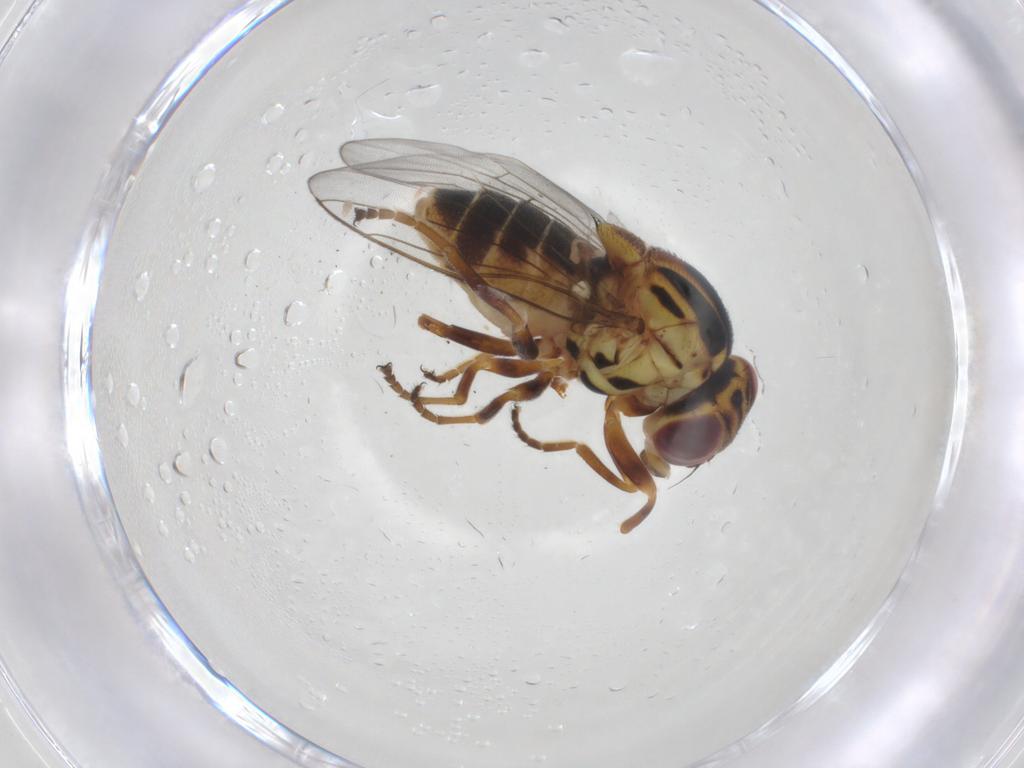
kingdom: Animalia
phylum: Arthropoda
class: Insecta
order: Diptera
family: Chloropidae
